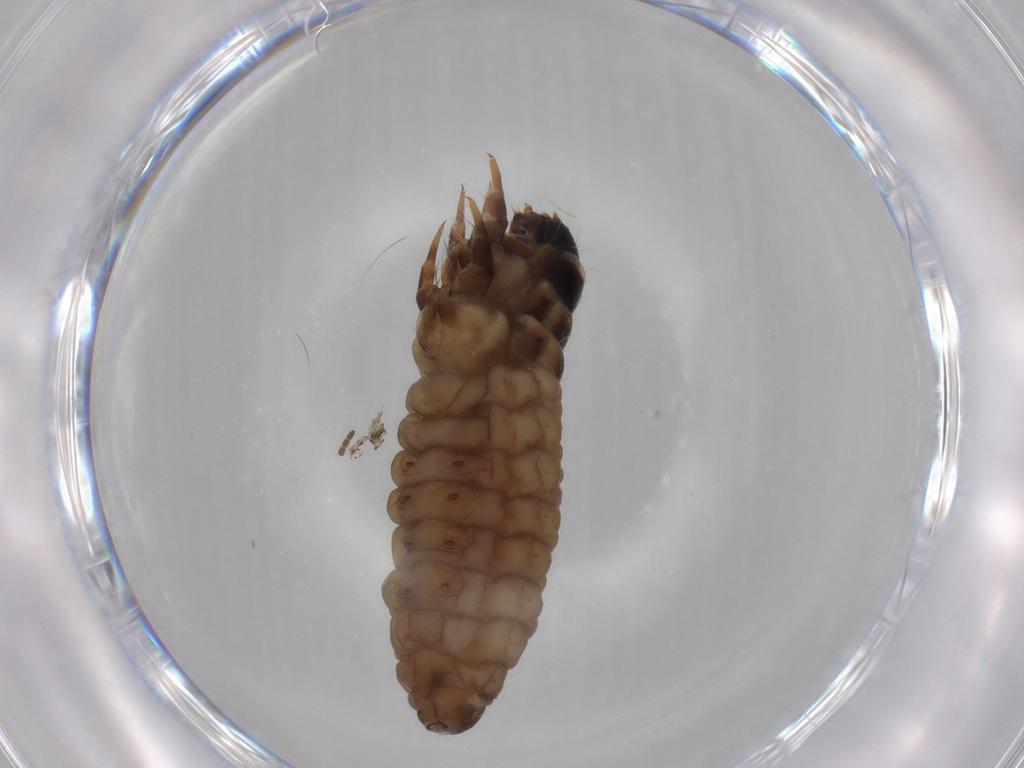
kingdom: Animalia
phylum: Arthropoda
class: Insecta
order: Lepidoptera
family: Psychidae
